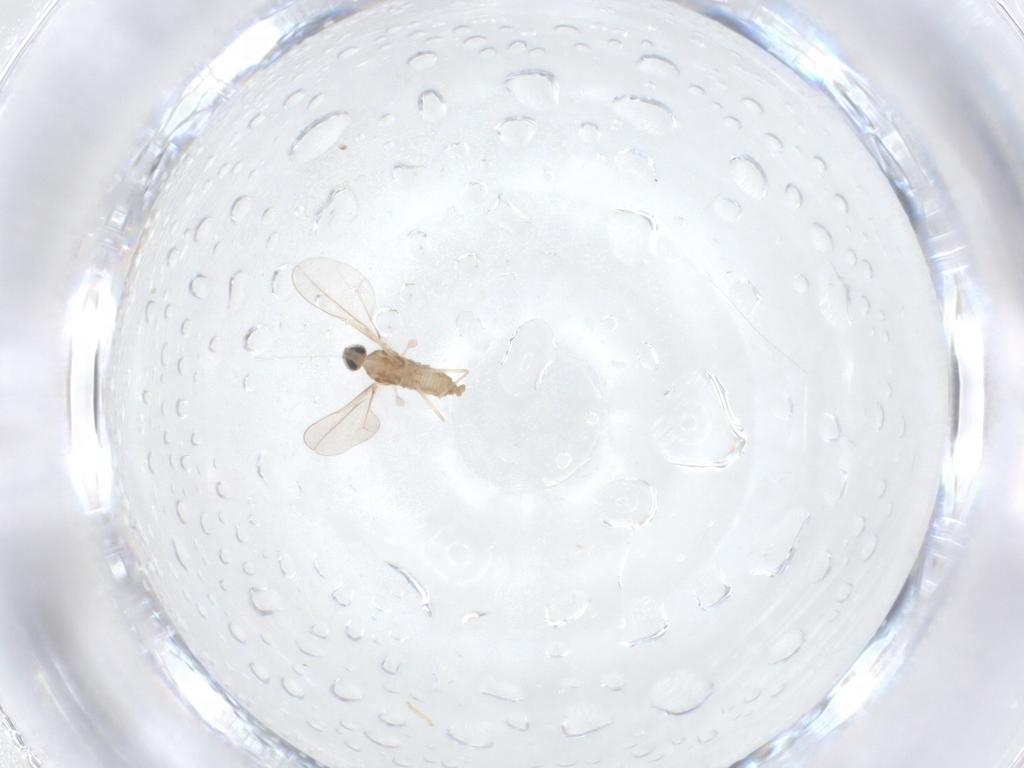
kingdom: Animalia
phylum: Arthropoda
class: Insecta
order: Diptera
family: Cecidomyiidae
